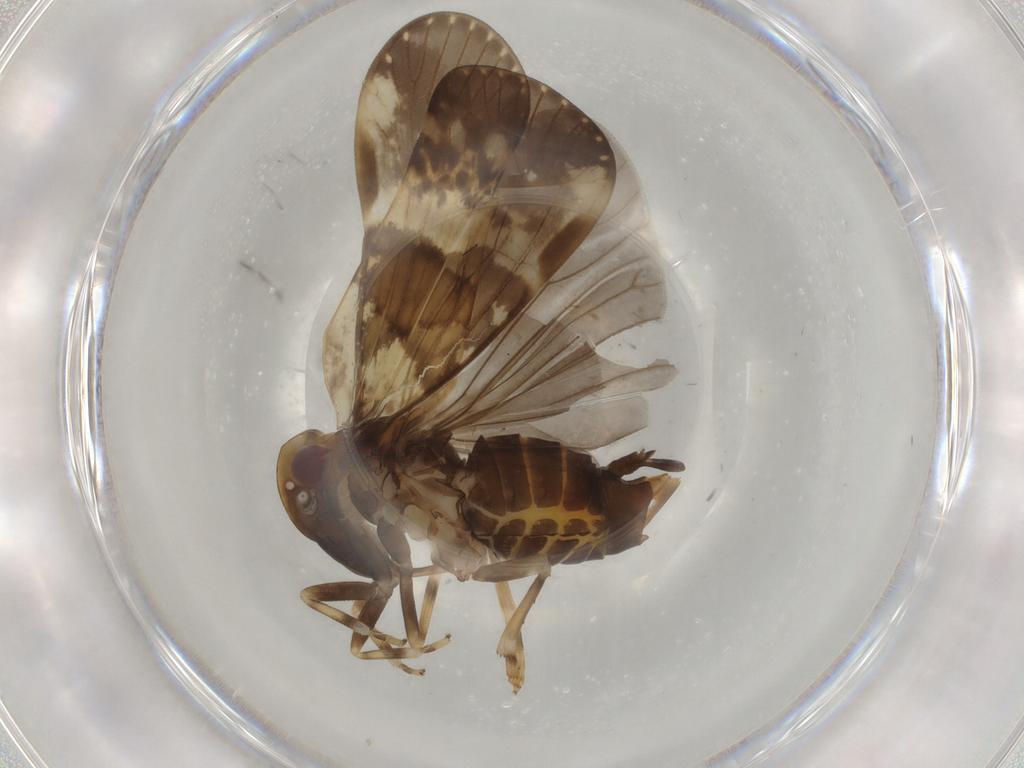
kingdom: Animalia
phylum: Arthropoda
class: Insecta
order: Hemiptera
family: Cixiidae
